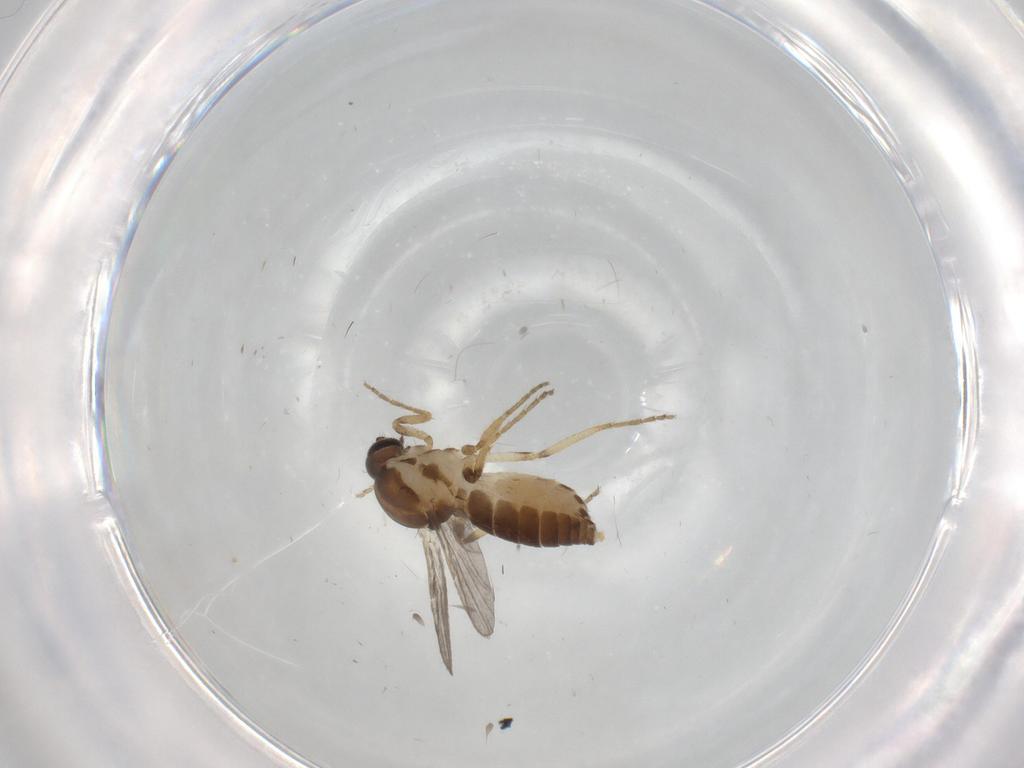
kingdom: Animalia
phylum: Arthropoda
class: Insecta
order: Diptera
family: Ceratopogonidae
